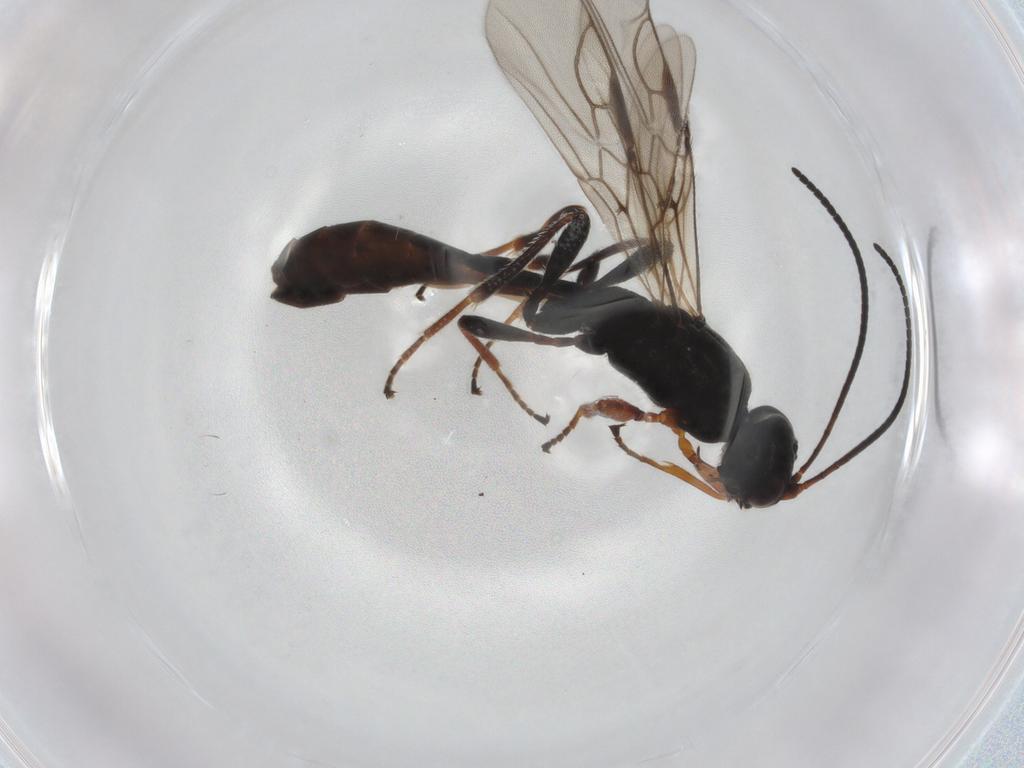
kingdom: Animalia
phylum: Arthropoda
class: Insecta
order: Hymenoptera
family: Braconidae
